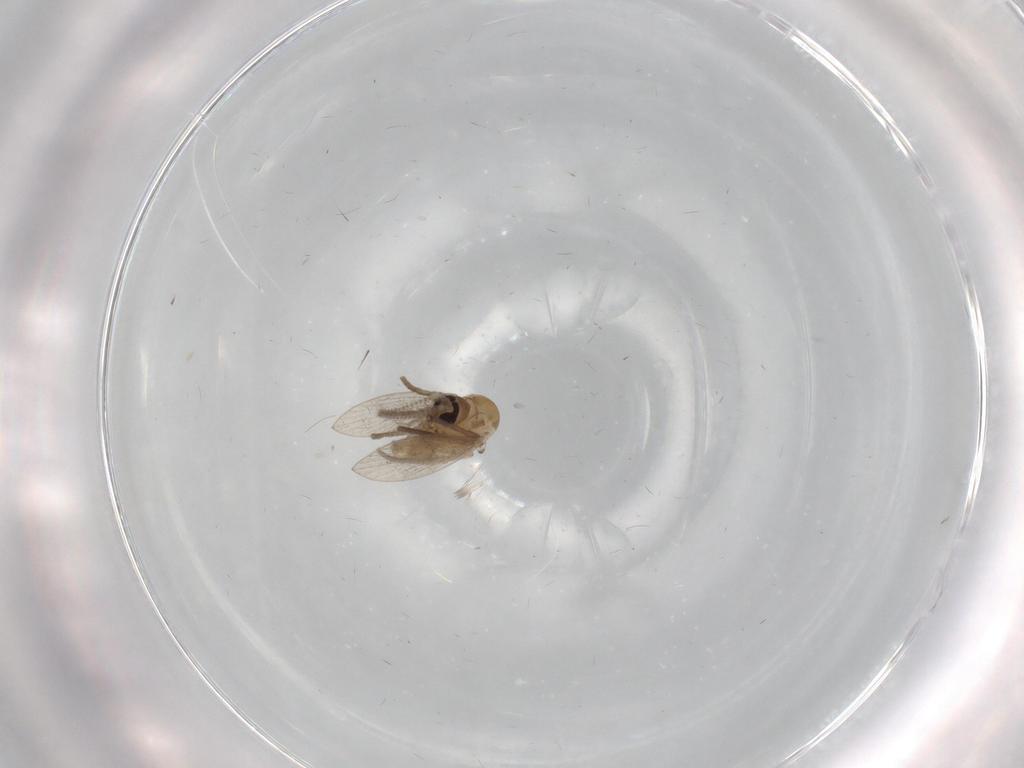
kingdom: Animalia
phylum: Arthropoda
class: Insecta
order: Diptera
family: Psychodidae
